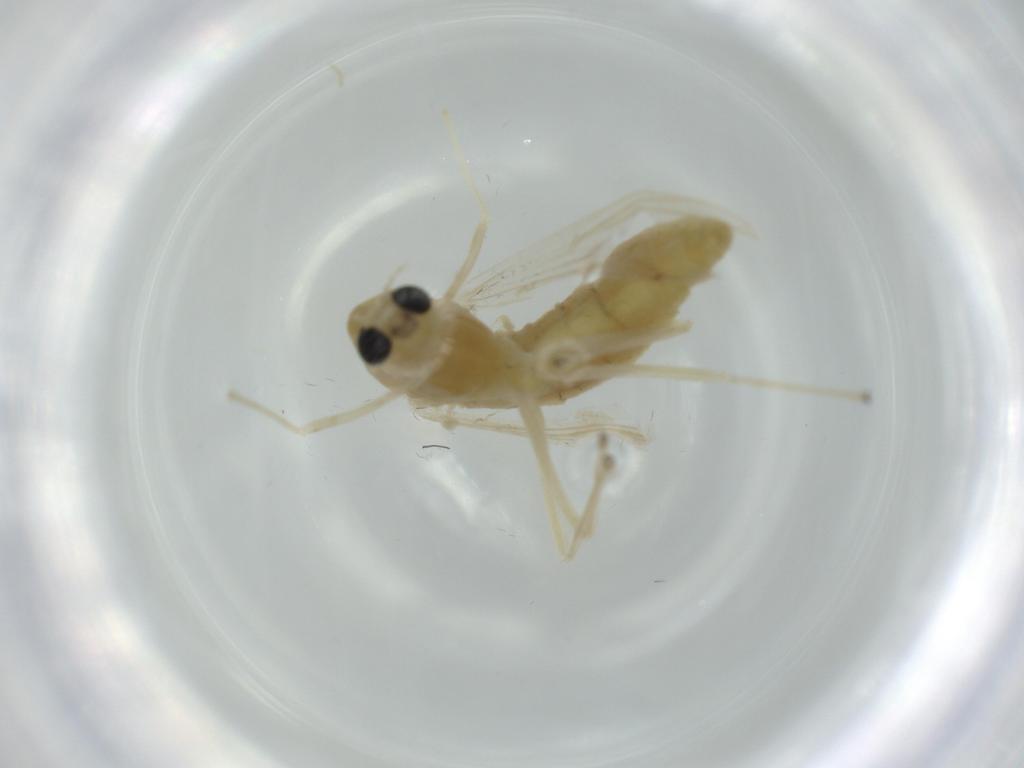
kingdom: Animalia
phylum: Arthropoda
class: Insecta
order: Diptera
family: Chironomidae
